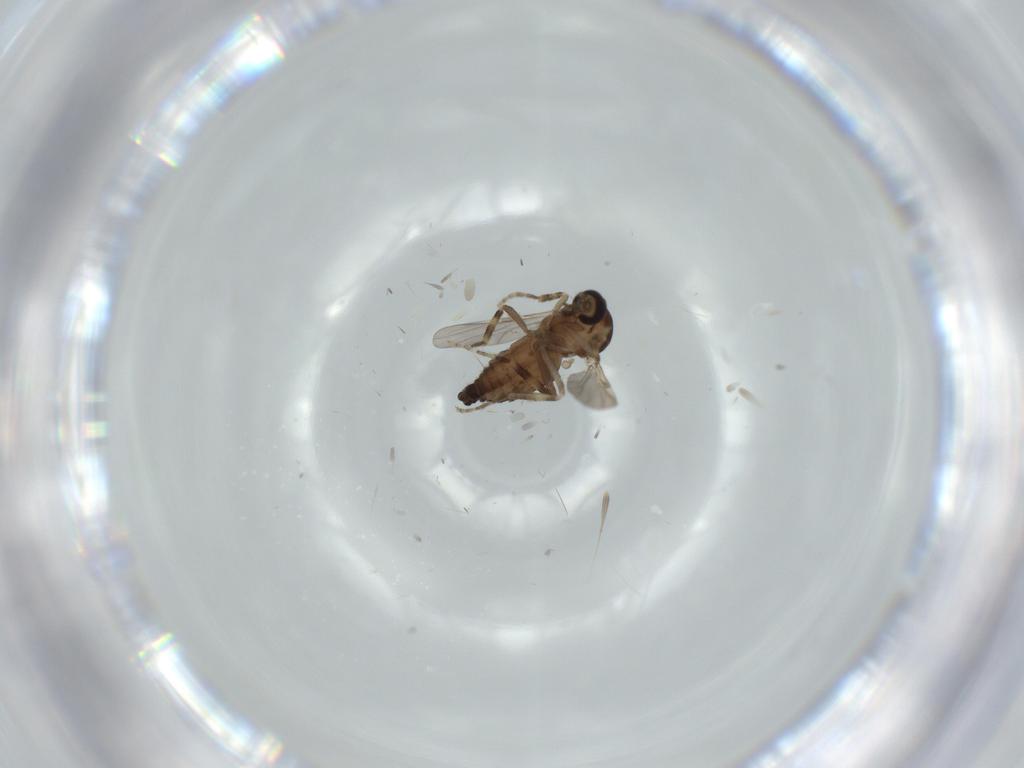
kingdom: Animalia
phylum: Arthropoda
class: Insecta
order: Diptera
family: Ceratopogonidae
